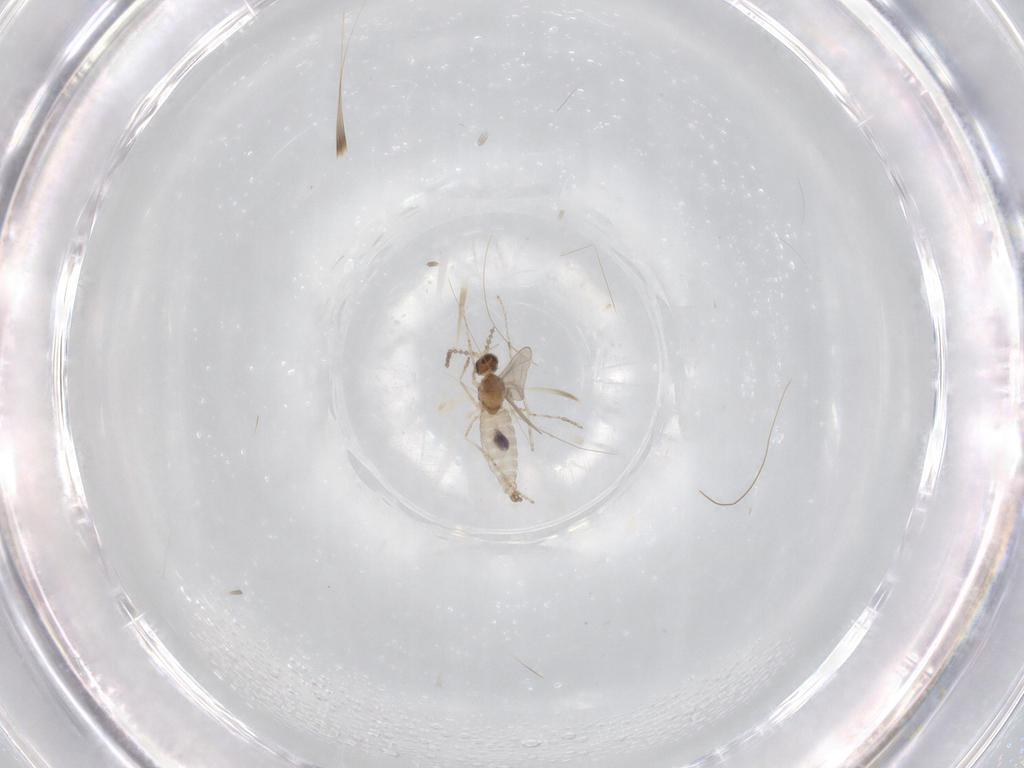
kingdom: Animalia
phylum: Arthropoda
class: Insecta
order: Diptera
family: Cecidomyiidae
